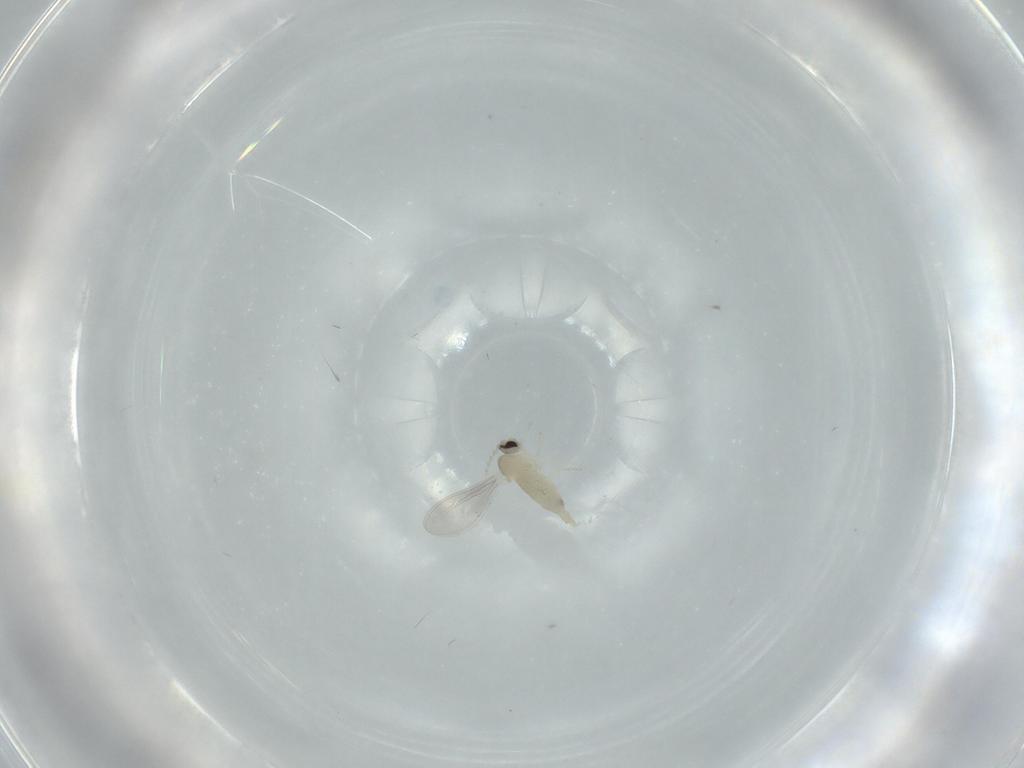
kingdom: Animalia
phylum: Arthropoda
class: Insecta
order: Diptera
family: Cecidomyiidae
